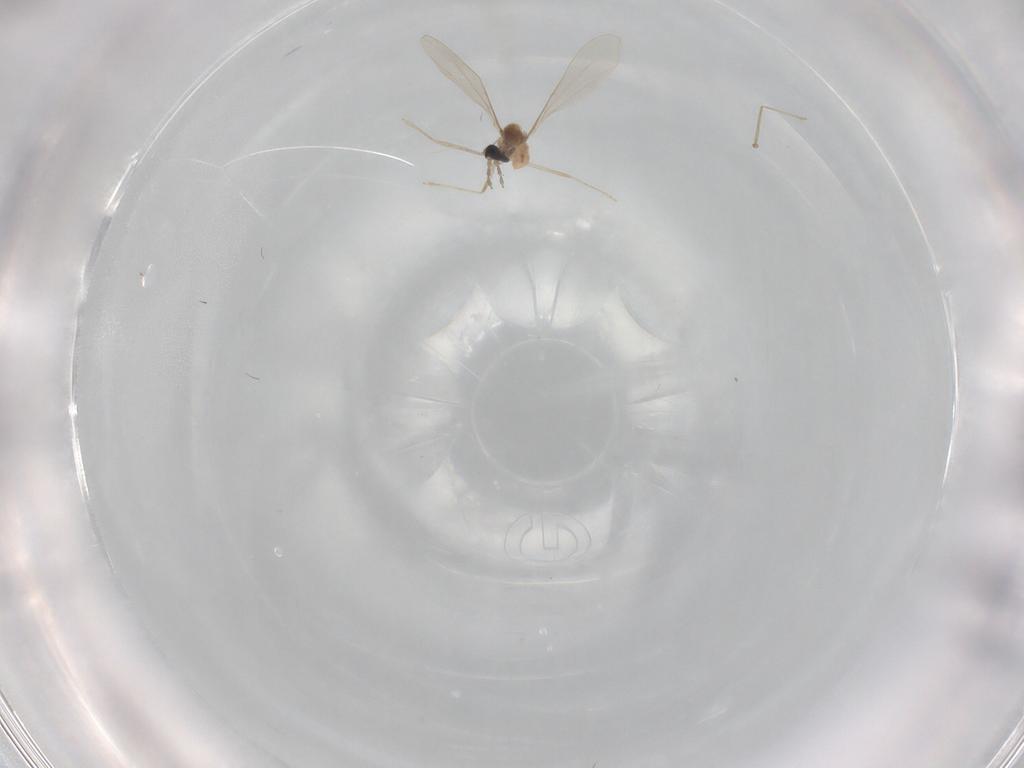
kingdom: Animalia
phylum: Arthropoda
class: Insecta
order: Diptera
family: Cecidomyiidae
